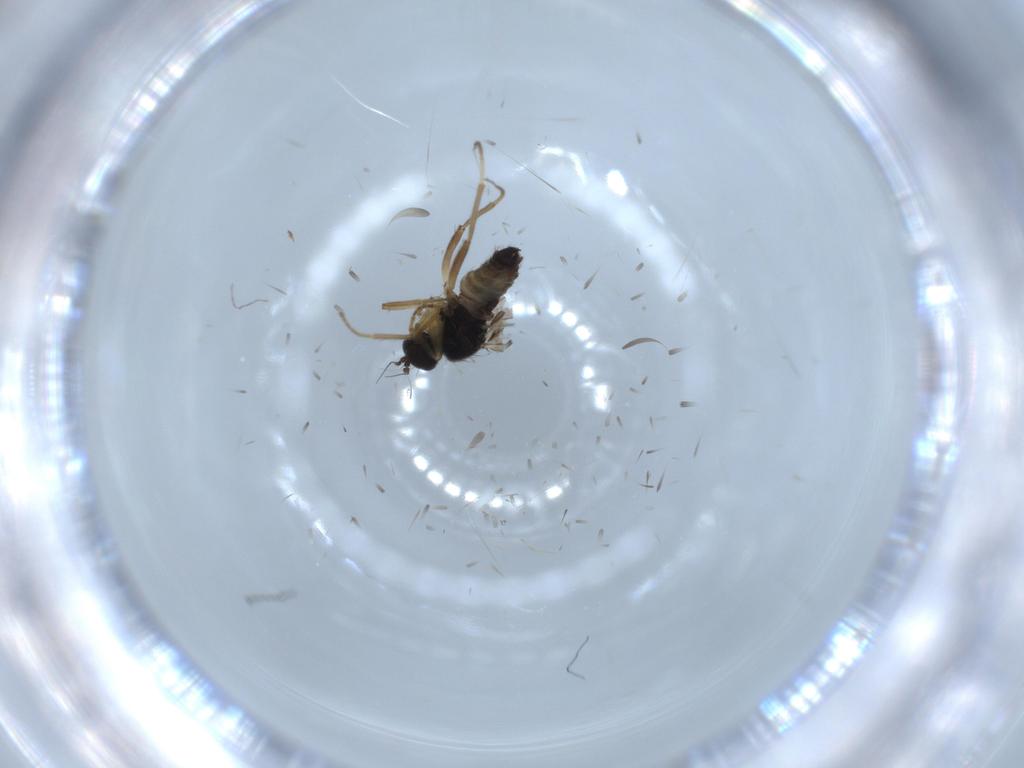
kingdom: Animalia
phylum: Arthropoda
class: Insecta
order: Diptera
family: Hybotidae
